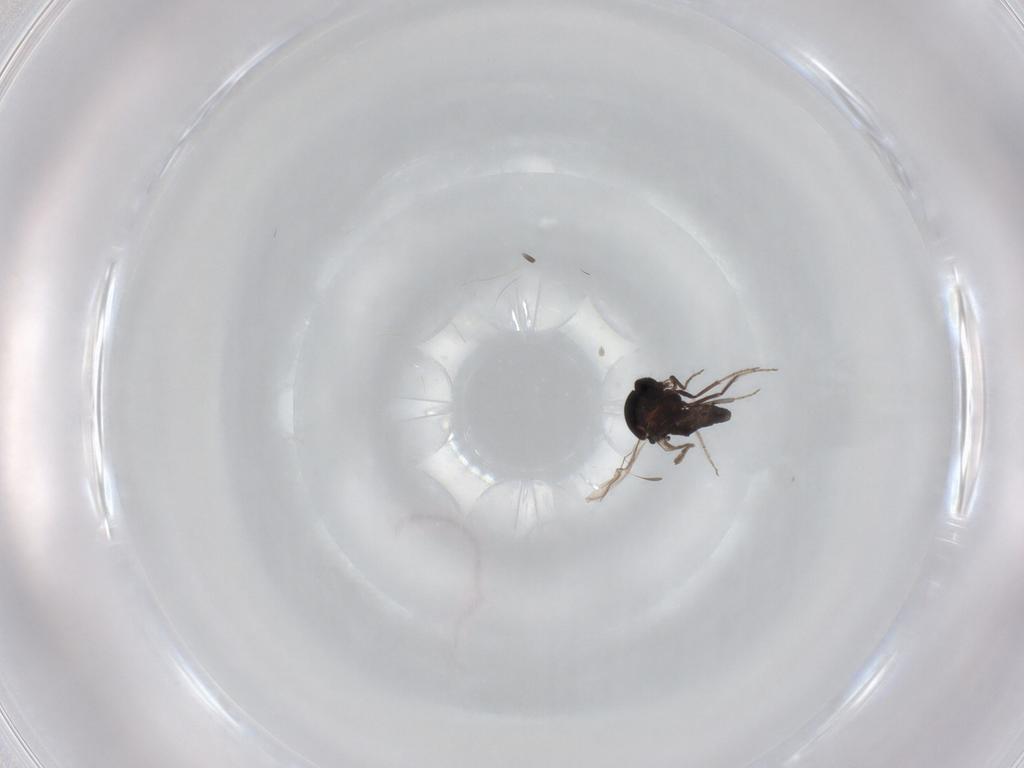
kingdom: Animalia
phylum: Arthropoda
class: Insecta
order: Diptera
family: Ceratopogonidae
